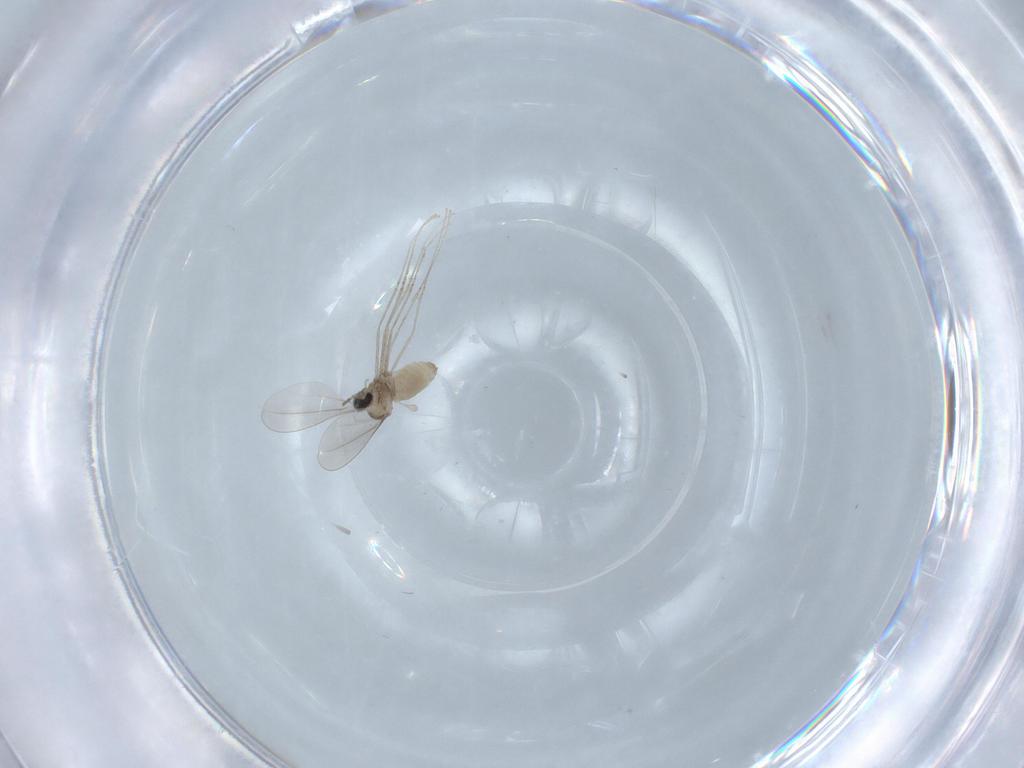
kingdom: Animalia
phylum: Arthropoda
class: Insecta
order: Diptera
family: Cecidomyiidae
